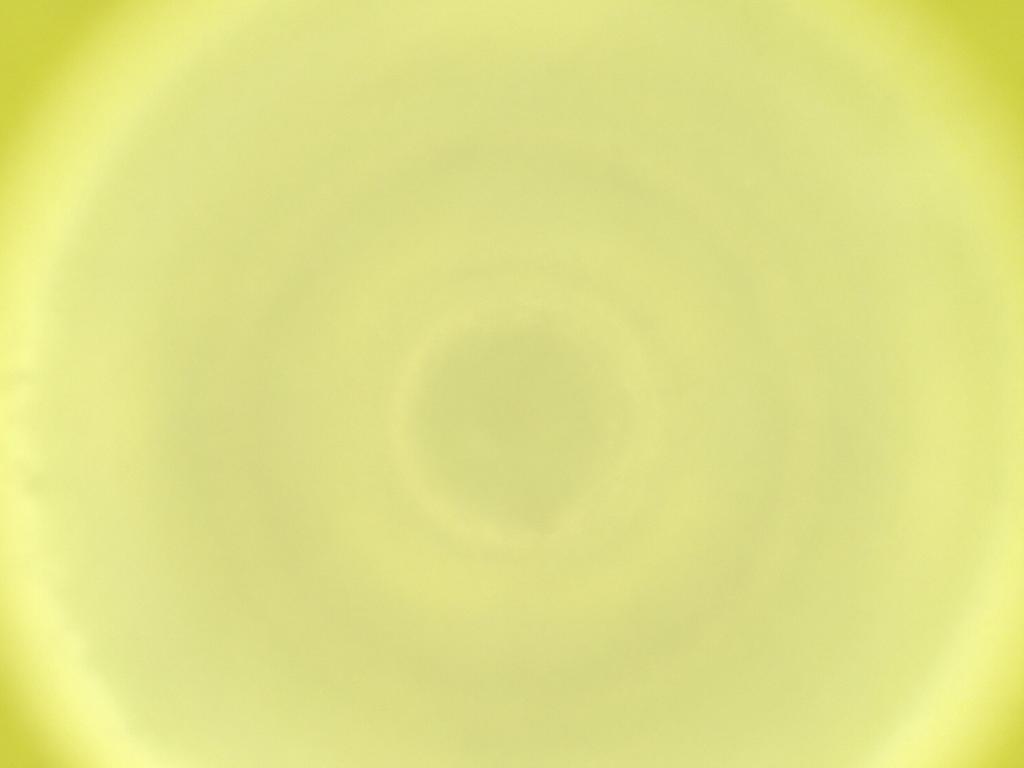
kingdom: Animalia
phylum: Arthropoda
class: Insecta
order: Diptera
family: Cecidomyiidae
